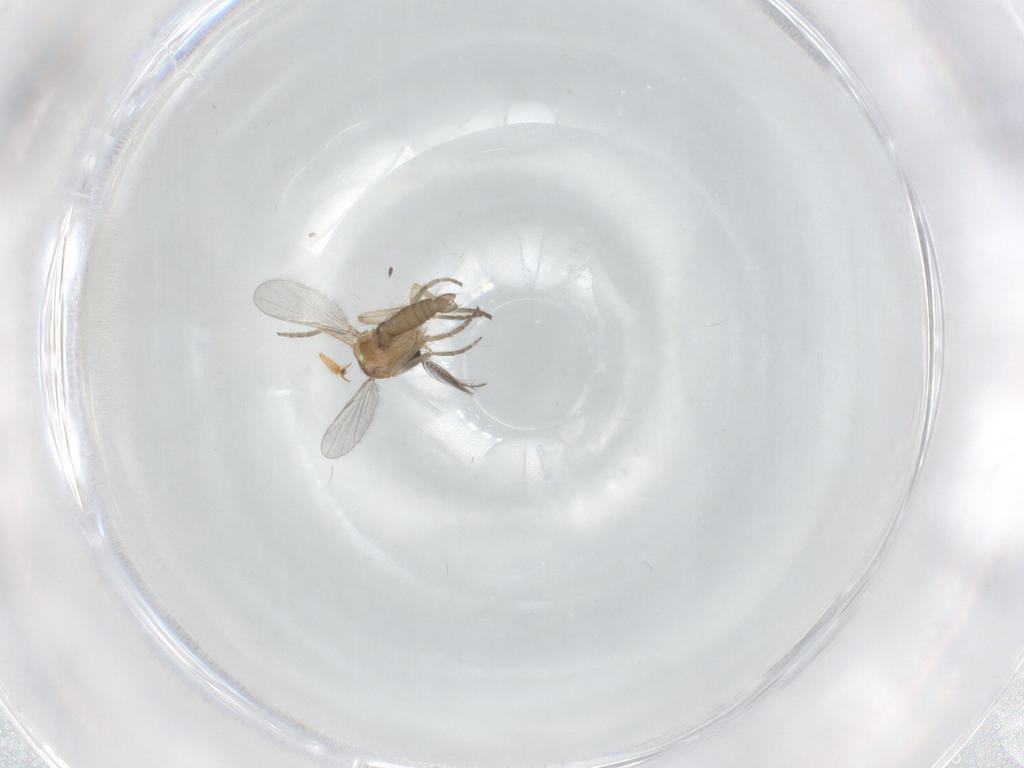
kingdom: Animalia
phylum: Arthropoda
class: Insecta
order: Diptera
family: Ceratopogonidae
